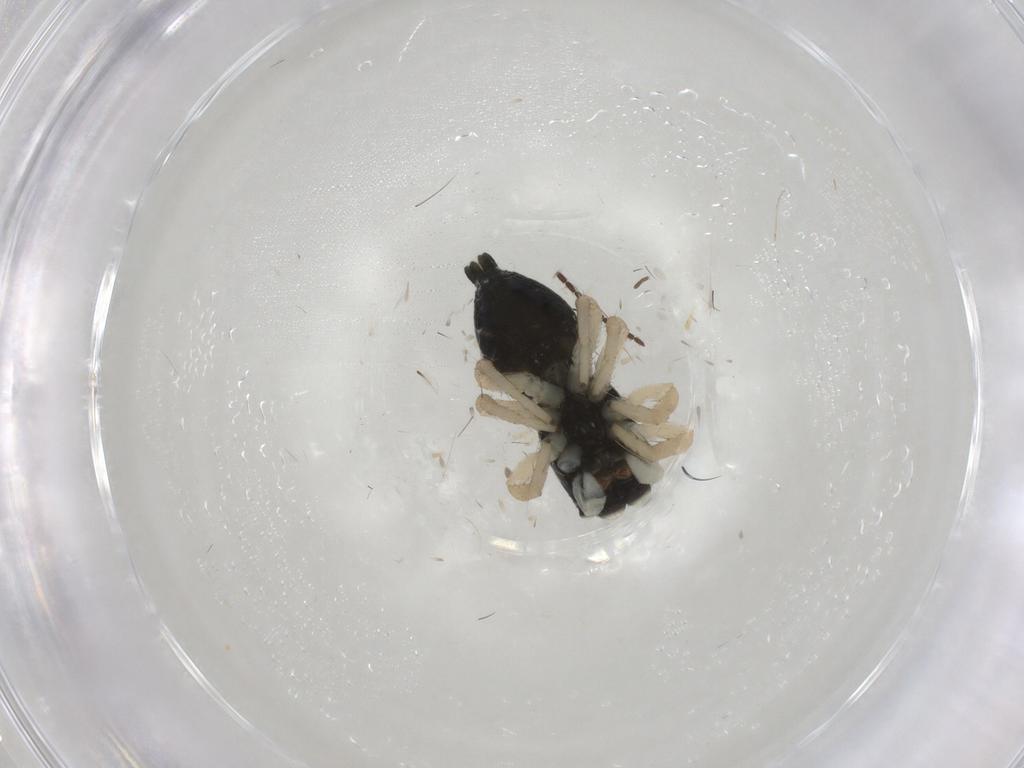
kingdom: Animalia
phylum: Arthropoda
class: Arachnida
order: Araneae
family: Salticidae
